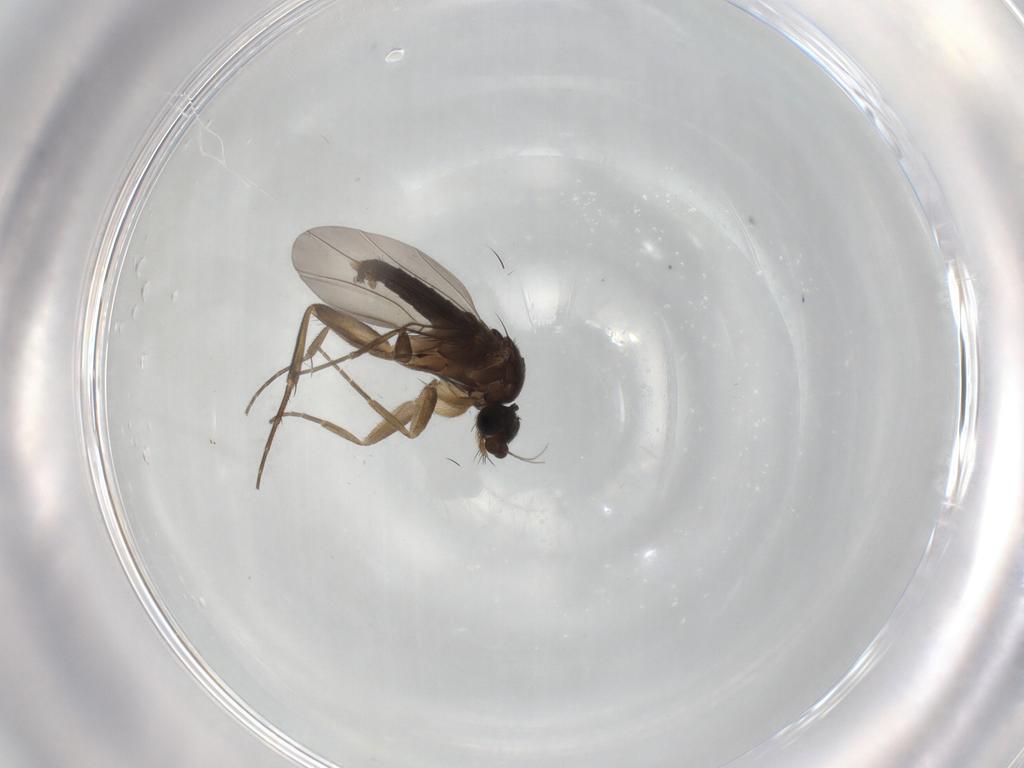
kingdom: Animalia
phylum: Arthropoda
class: Insecta
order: Diptera
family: Phoridae
